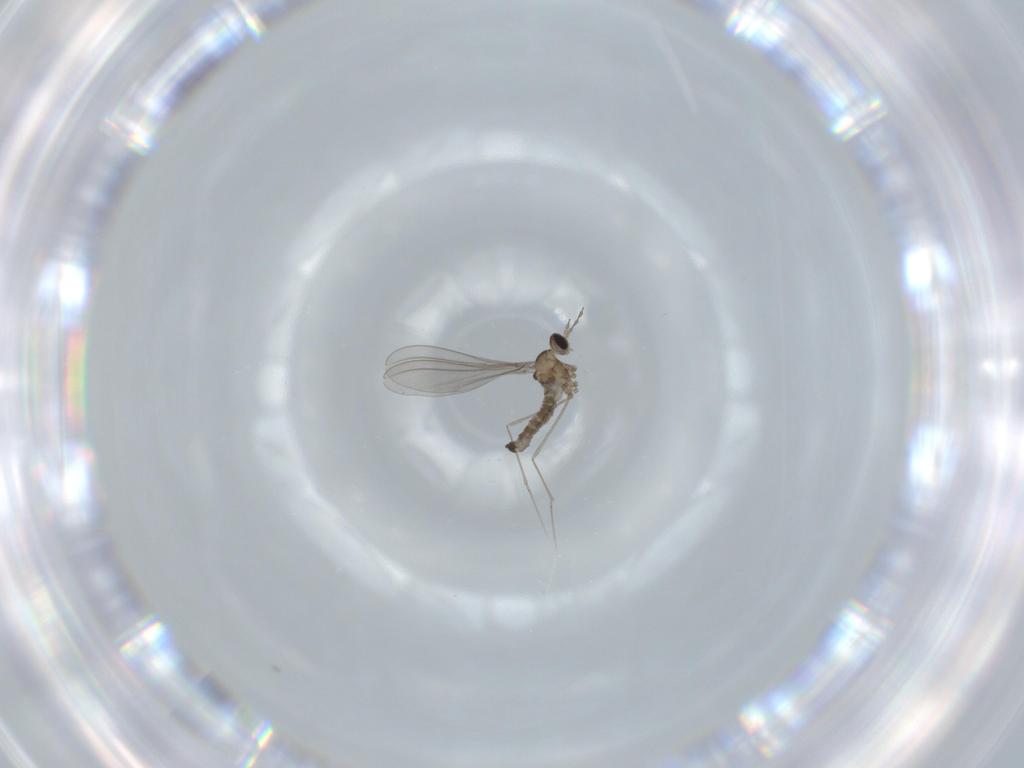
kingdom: Animalia
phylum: Arthropoda
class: Insecta
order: Diptera
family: Cecidomyiidae
